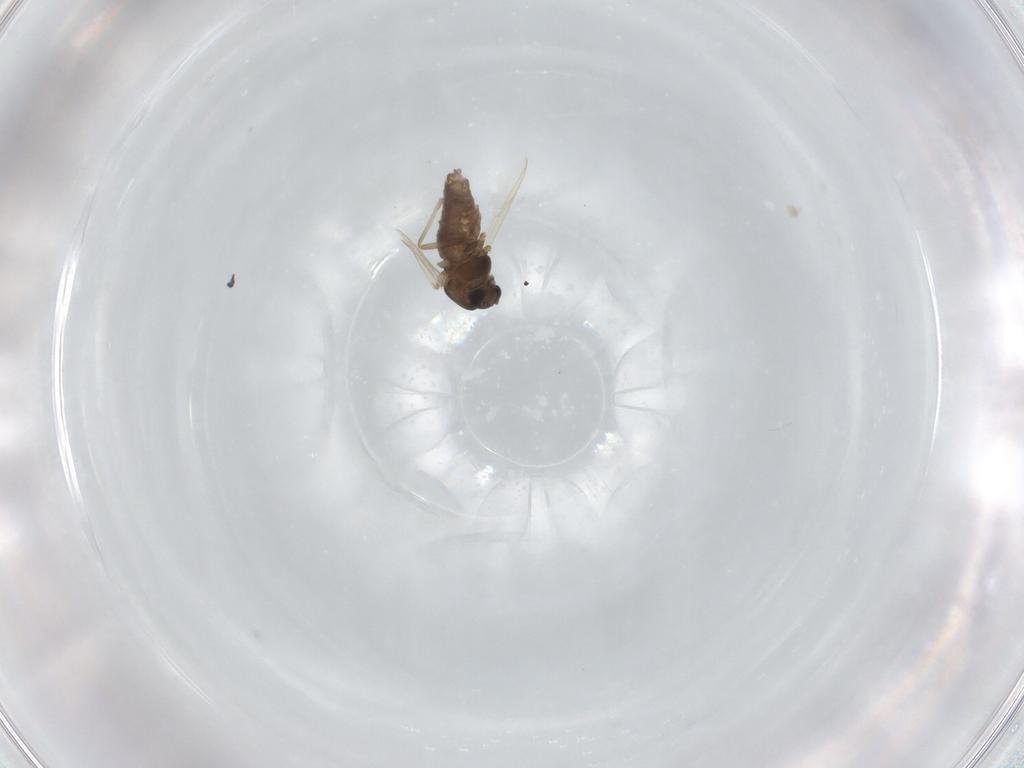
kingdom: Animalia
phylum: Arthropoda
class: Insecta
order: Diptera
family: Chironomidae
